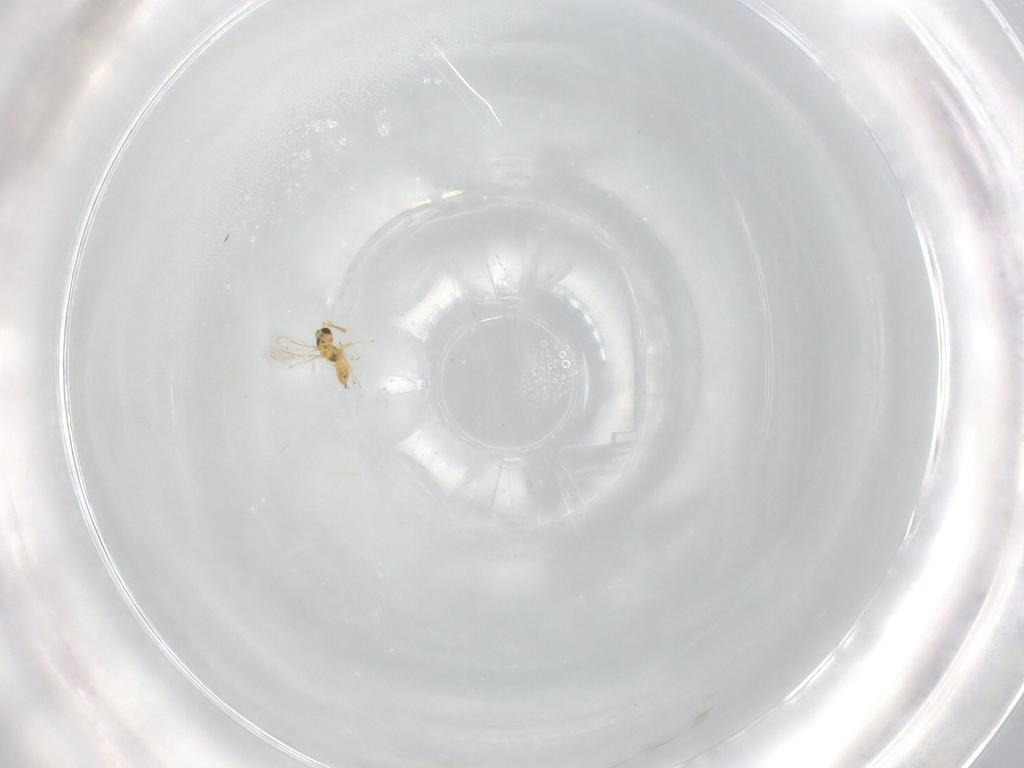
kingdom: Animalia
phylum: Arthropoda
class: Insecta
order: Hymenoptera
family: Mymaridae
